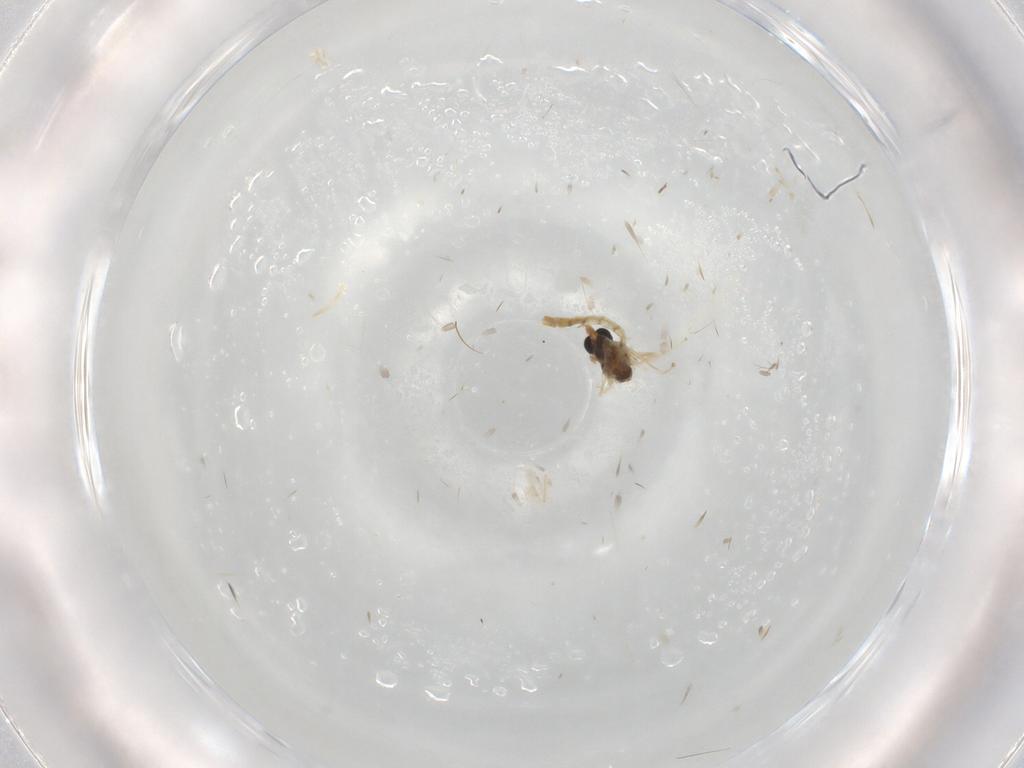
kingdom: Animalia
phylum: Arthropoda
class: Insecta
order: Diptera
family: Chironomidae
